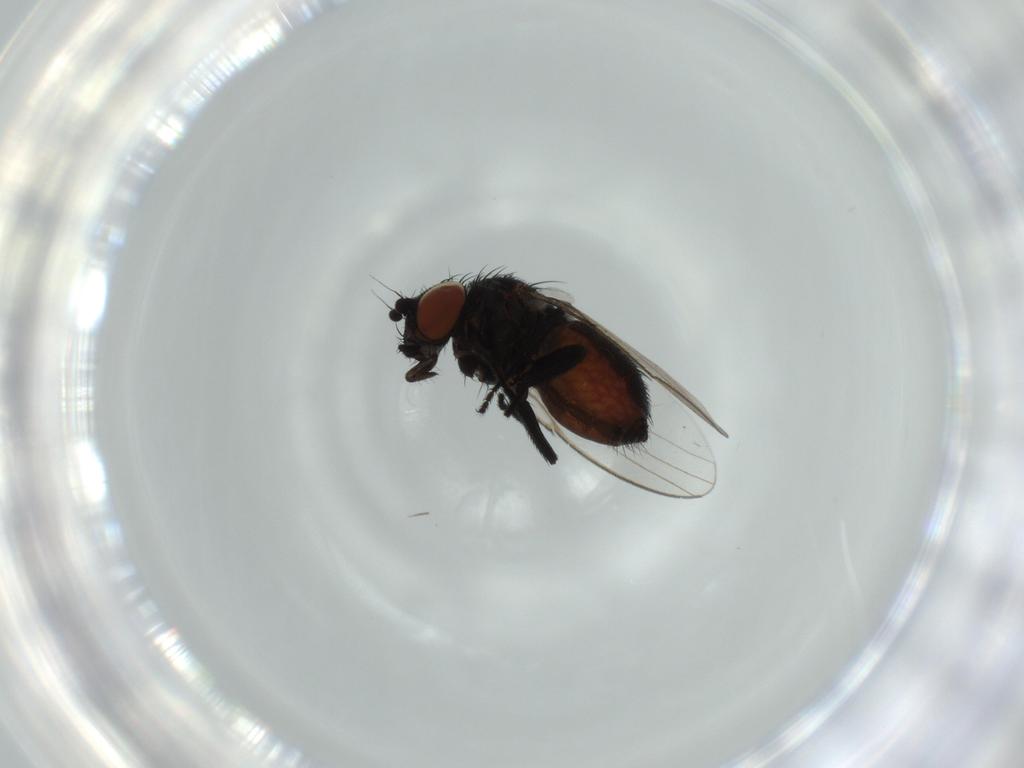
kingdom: Animalia
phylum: Arthropoda
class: Insecta
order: Diptera
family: Milichiidae
